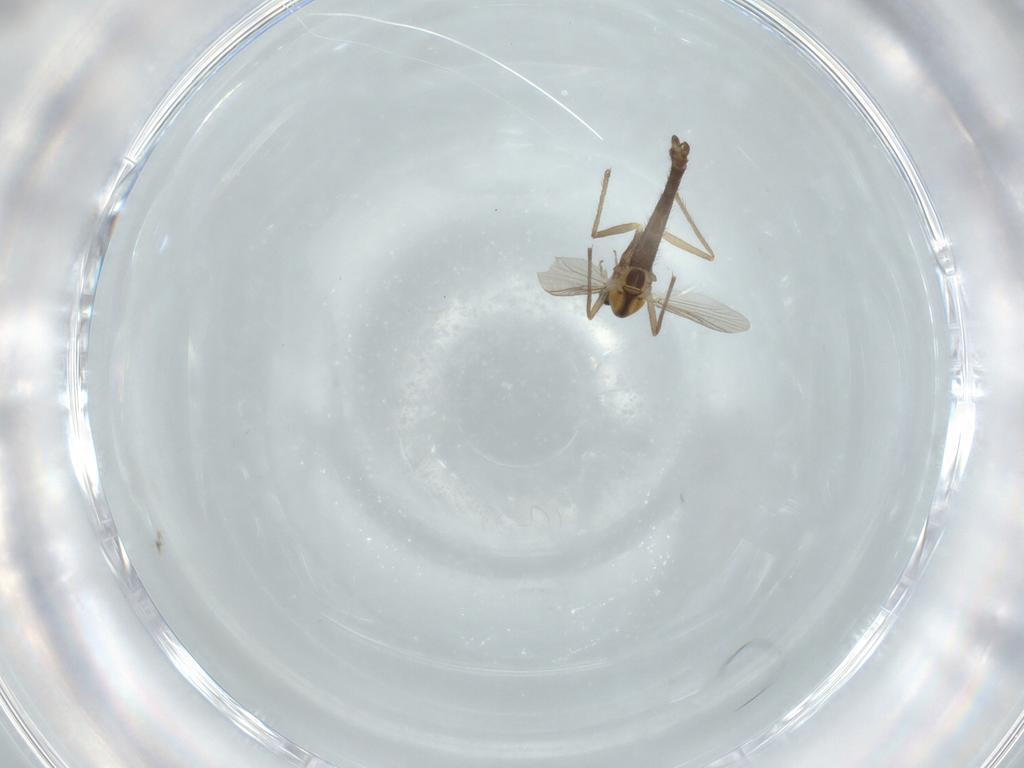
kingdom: Animalia
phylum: Arthropoda
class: Insecta
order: Diptera
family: Chironomidae
